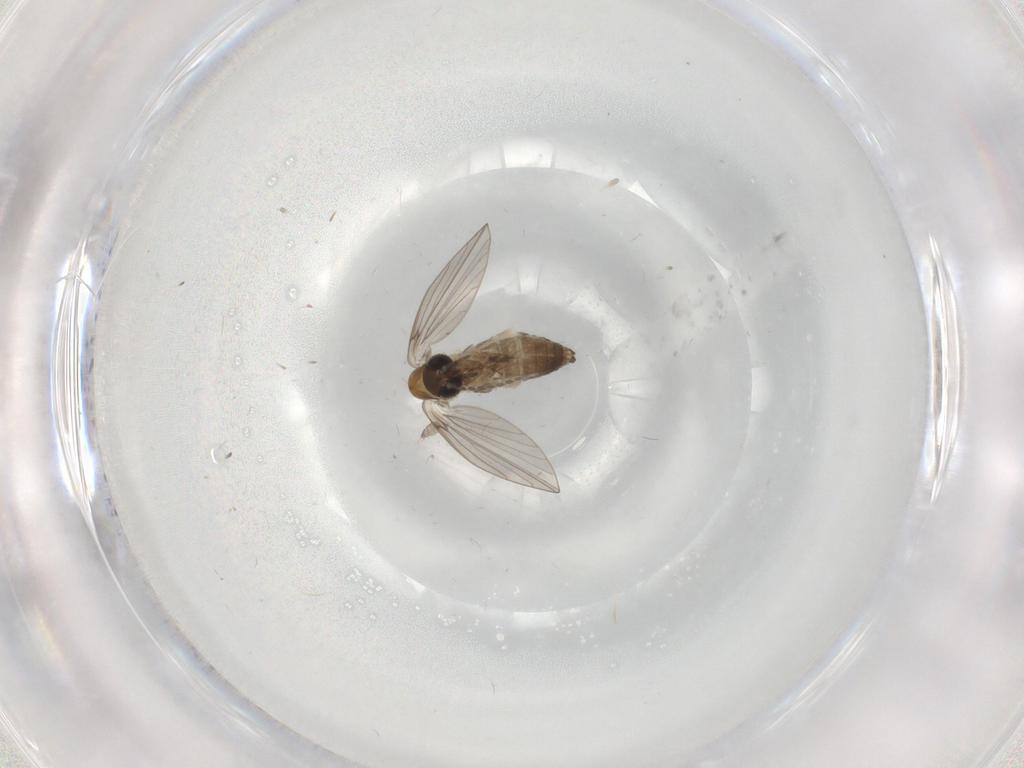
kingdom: Animalia
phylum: Arthropoda
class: Insecta
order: Diptera
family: Psychodidae
